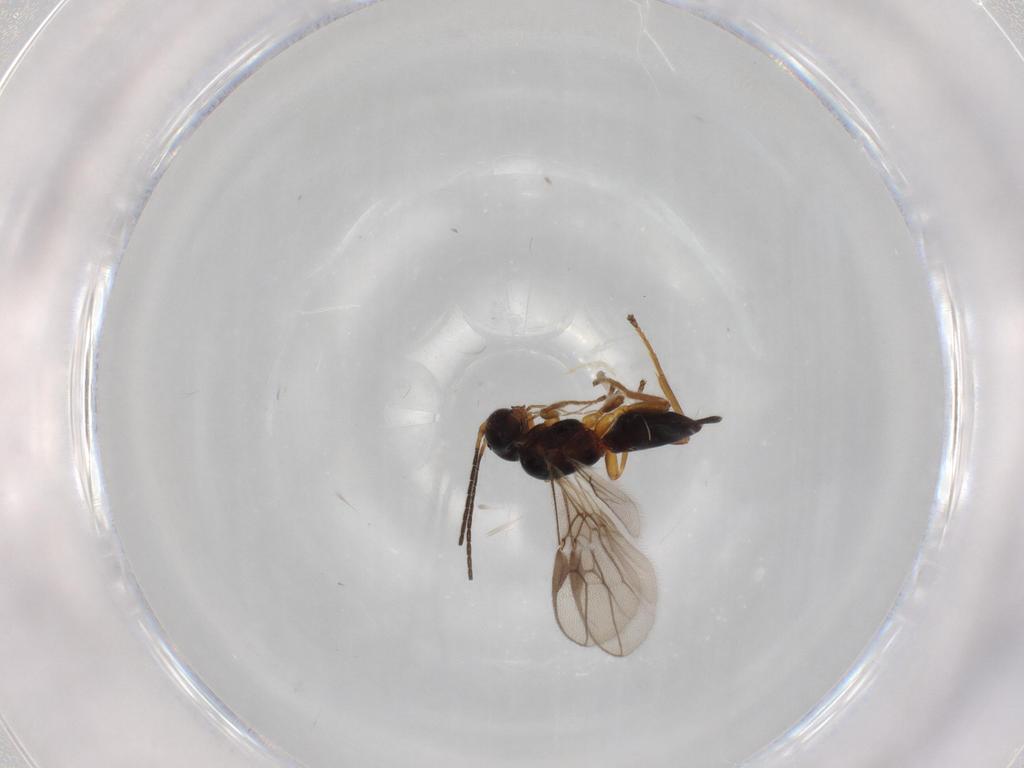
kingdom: Animalia
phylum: Arthropoda
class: Insecta
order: Hymenoptera
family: Braconidae
